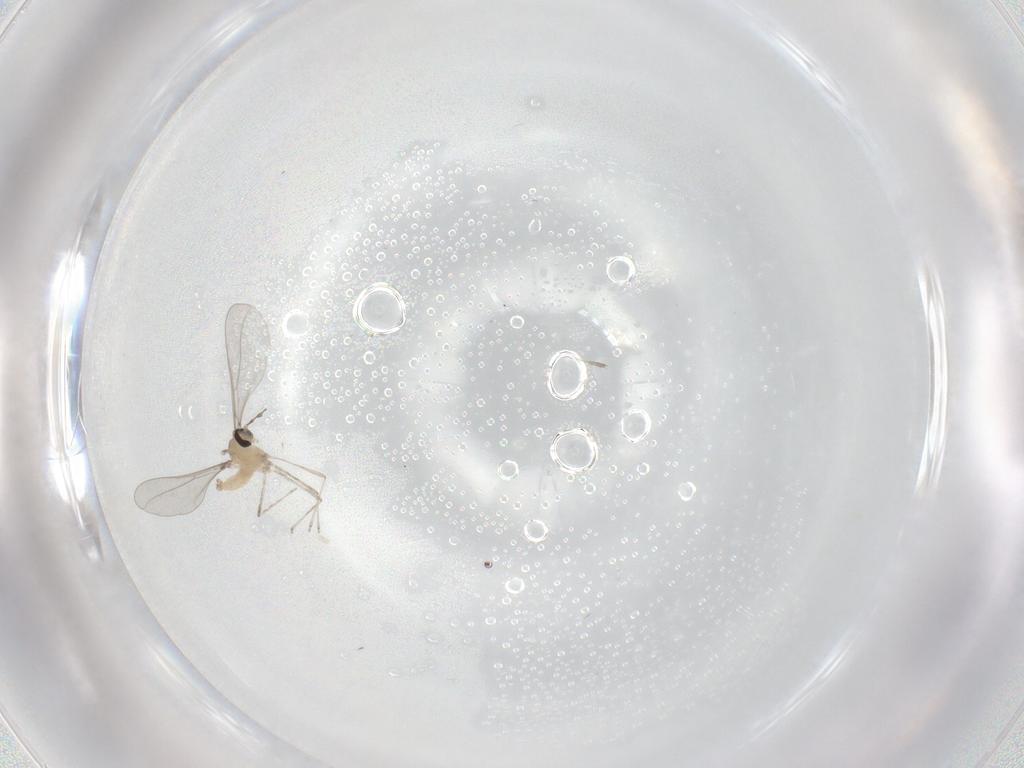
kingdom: Animalia
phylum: Arthropoda
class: Insecta
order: Diptera
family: Cecidomyiidae
